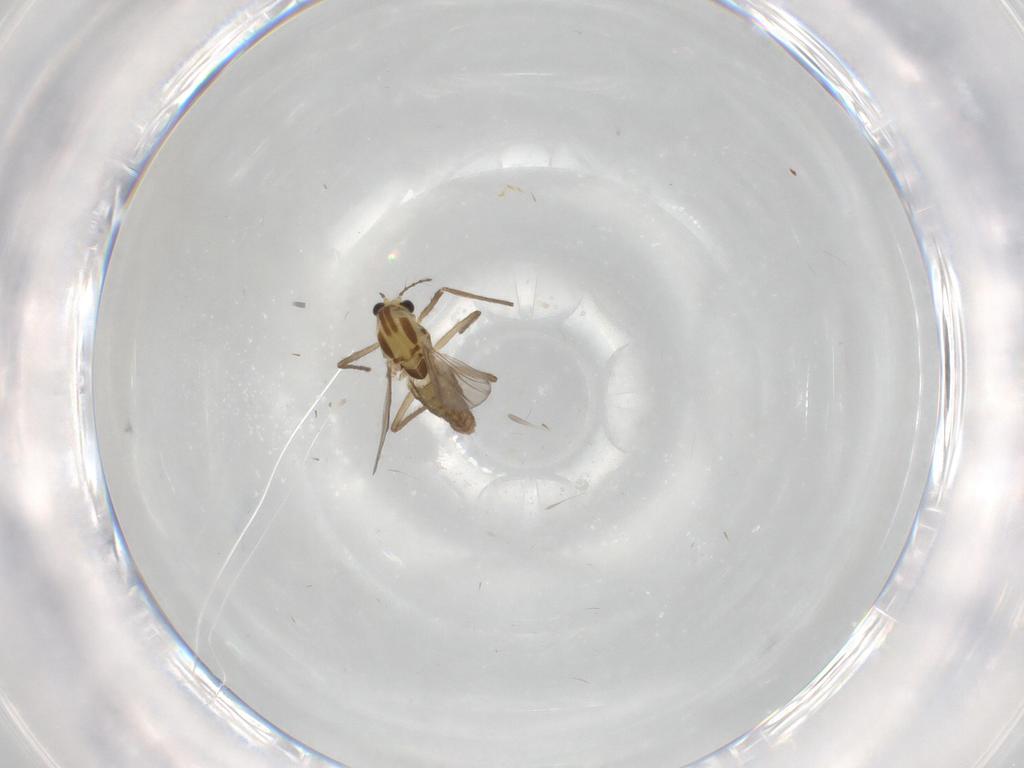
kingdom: Animalia
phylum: Arthropoda
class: Insecta
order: Diptera
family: Chironomidae
